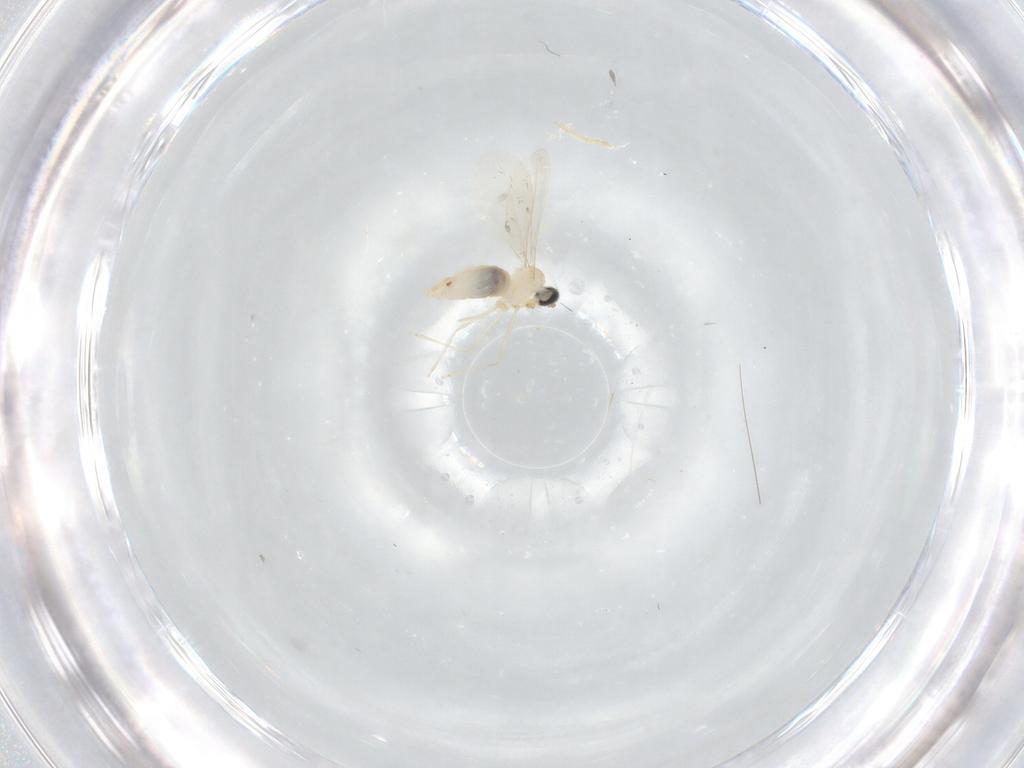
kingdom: Animalia
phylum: Arthropoda
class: Insecta
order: Diptera
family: Cecidomyiidae
